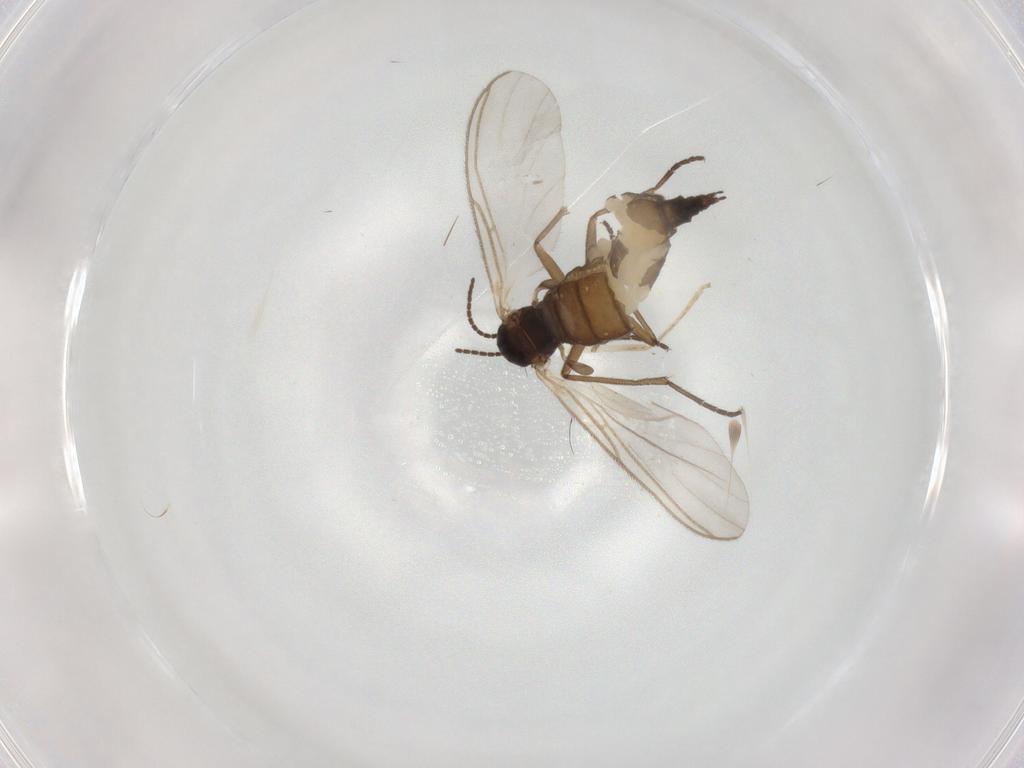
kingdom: Animalia
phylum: Arthropoda
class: Insecta
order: Diptera
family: Sciaridae
